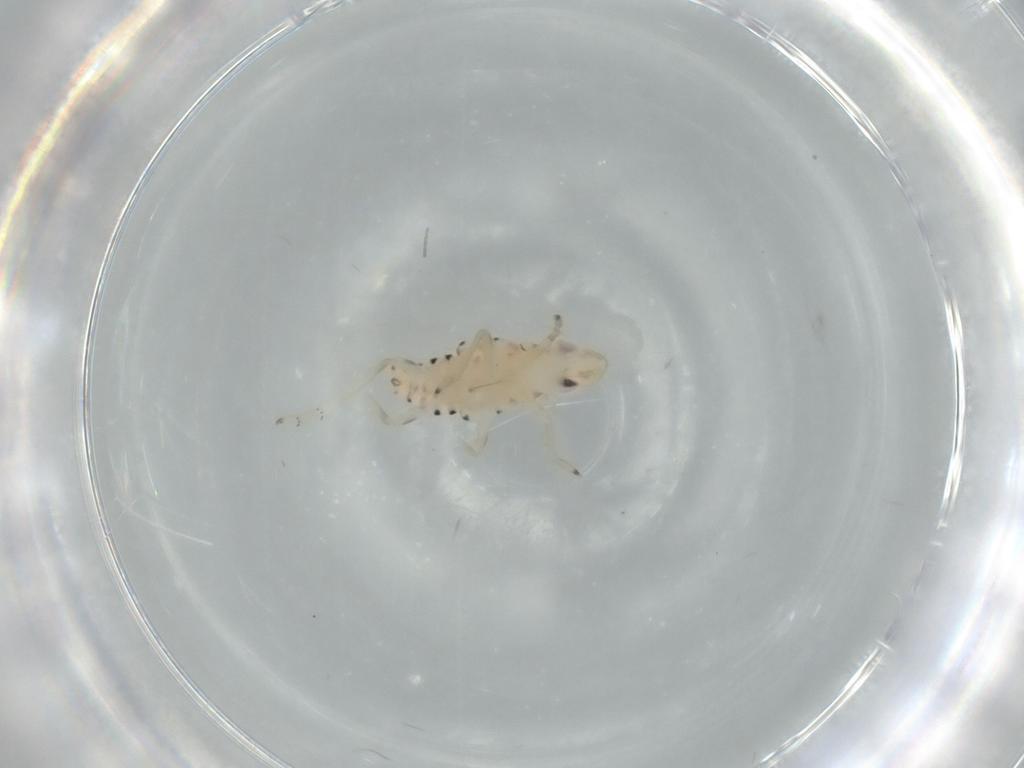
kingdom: Animalia
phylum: Arthropoda
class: Insecta
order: Hemiptera
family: Tropiduchidae
